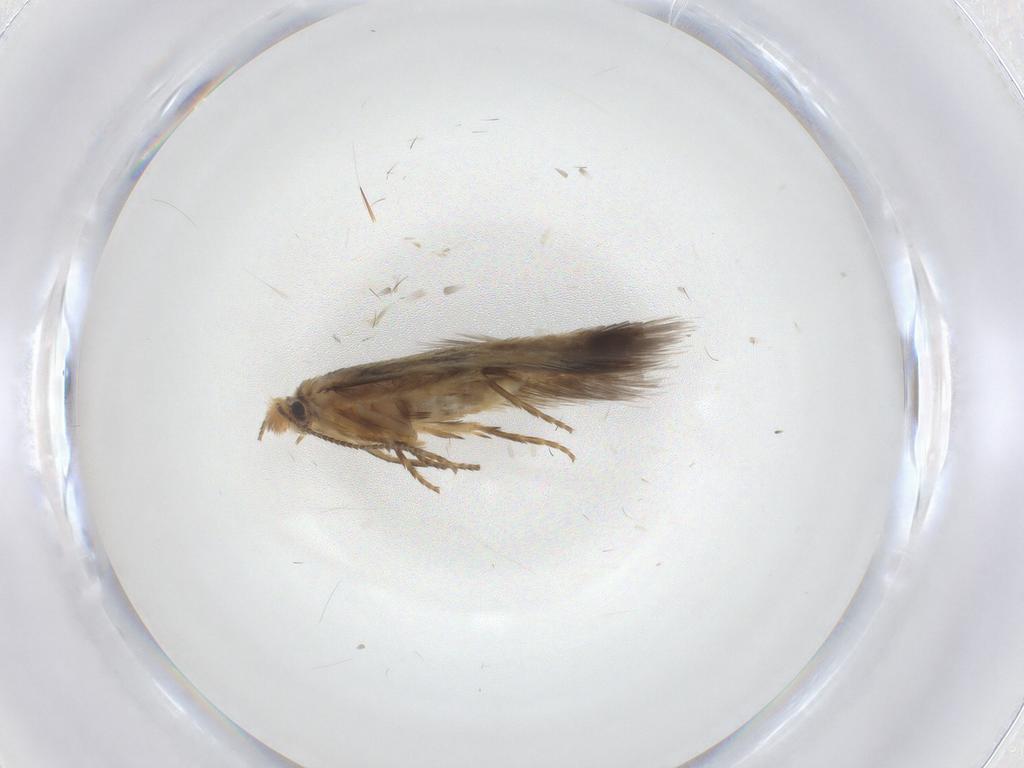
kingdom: Animalia
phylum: Arthropoda
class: Insecta
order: Lepidoptera
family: Nepticulidae
